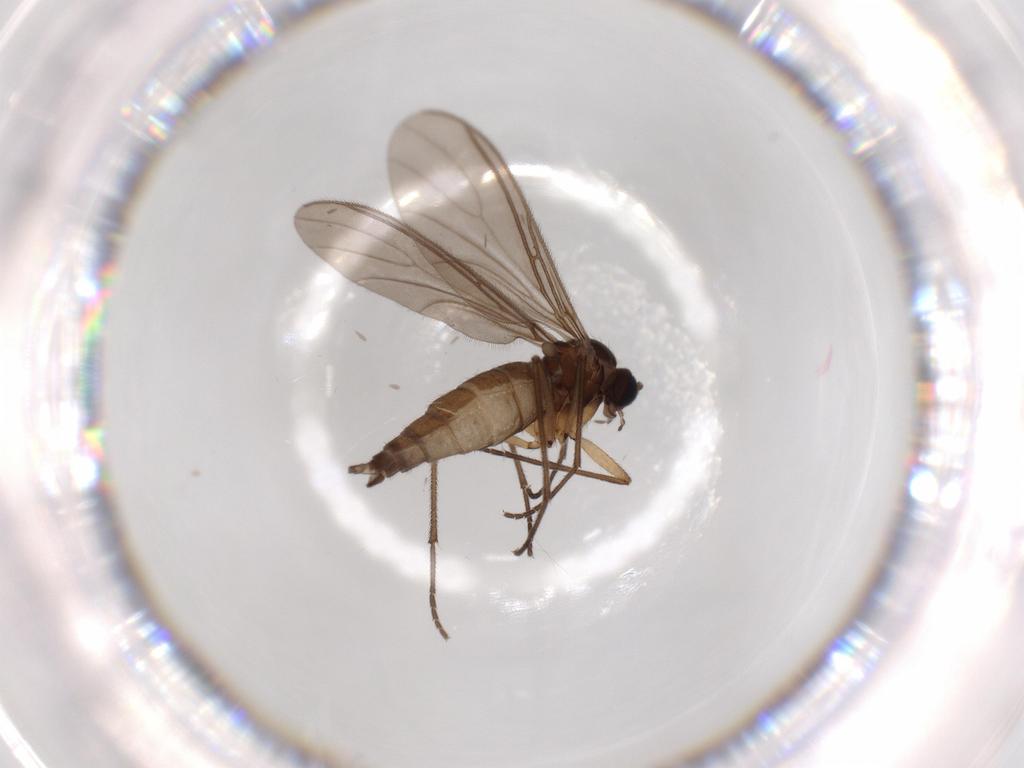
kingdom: Animalia
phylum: Arthropoda
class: Insecta
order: Diptera
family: Sciaridae
